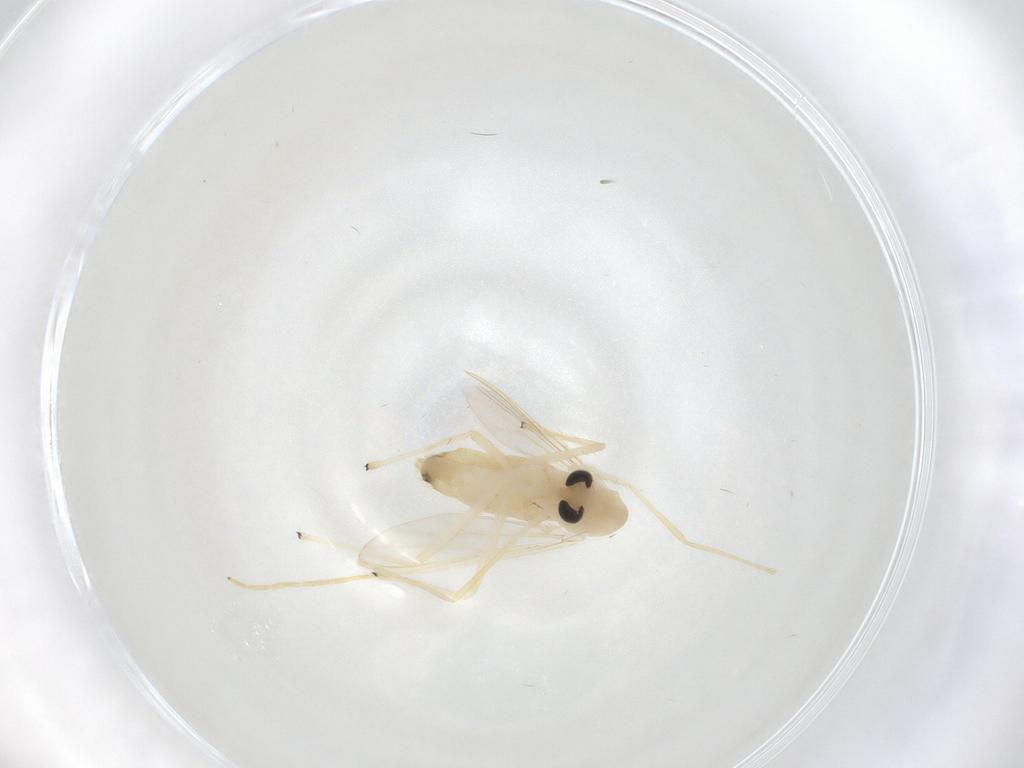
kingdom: Animalia
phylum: Arthropoda
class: Insecta
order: Diptera
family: Chironomidae
